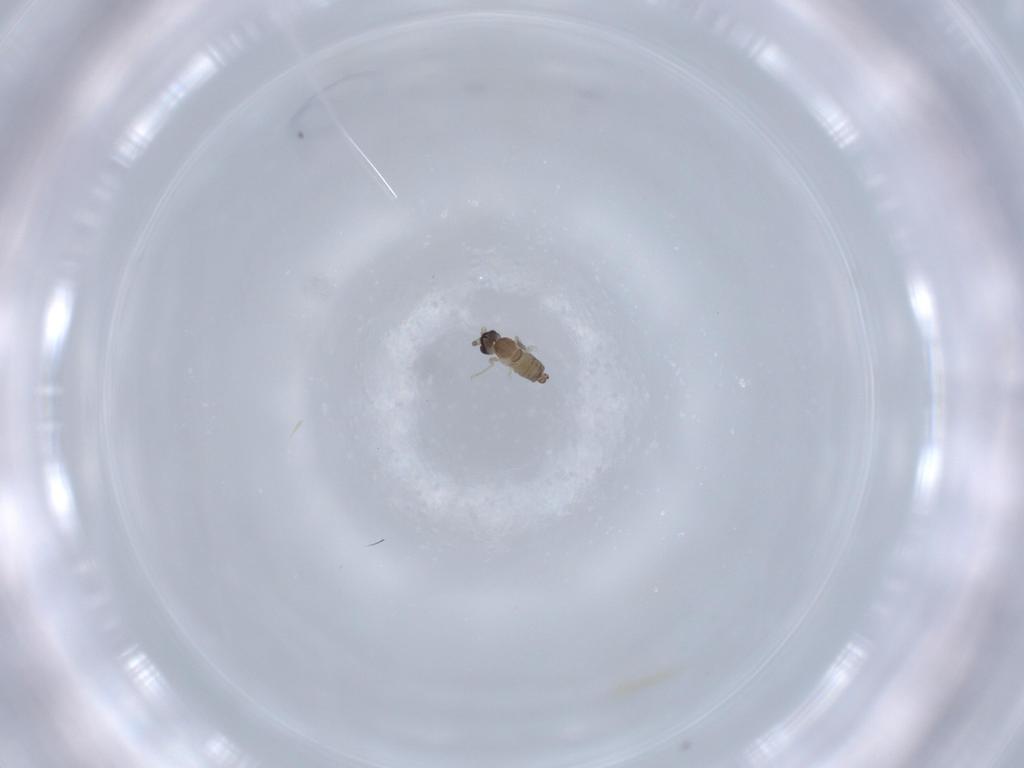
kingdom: Animalia
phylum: Arthropoda
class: Insecta
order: Diptera
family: Cecidomyiidae
